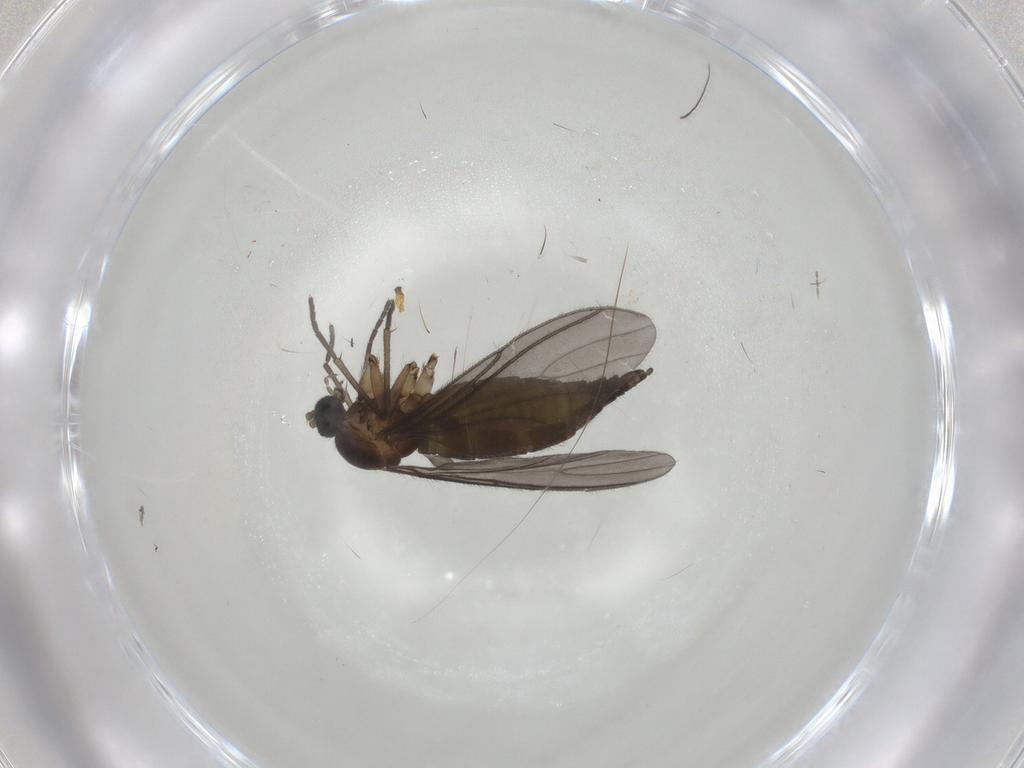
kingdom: Animalia
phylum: Arthropoda
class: Insecta
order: Diptera
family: Sciaridae
